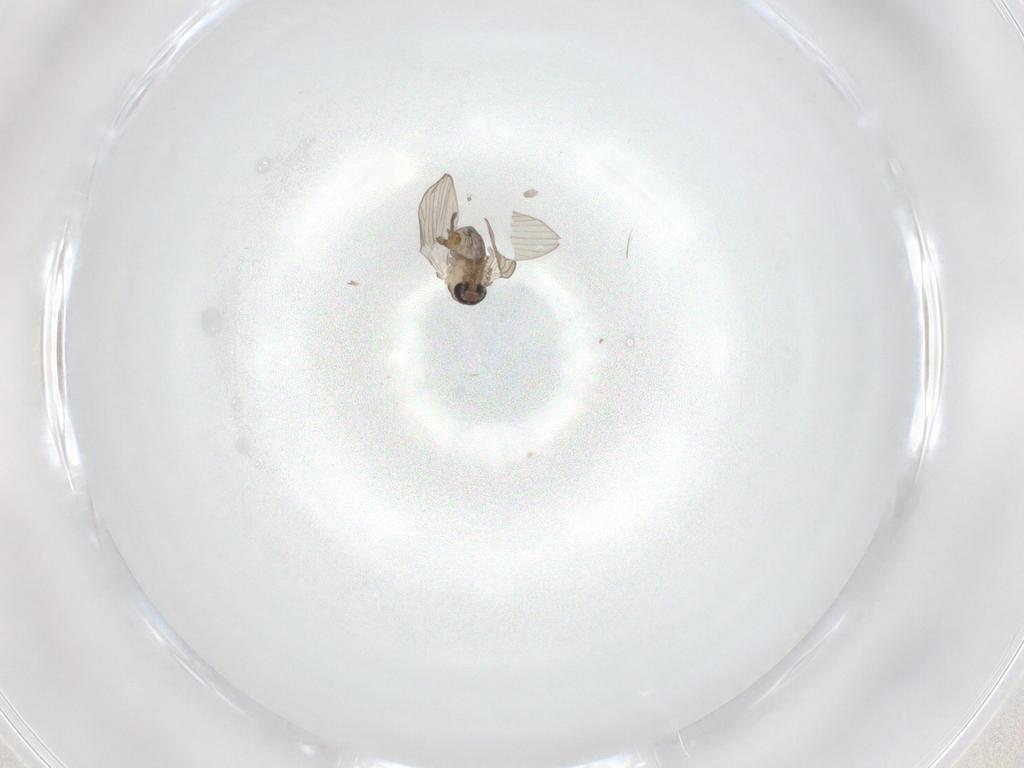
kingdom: Animalia
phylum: Arthropoda
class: Insecta
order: Diptera
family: Psychodidae
